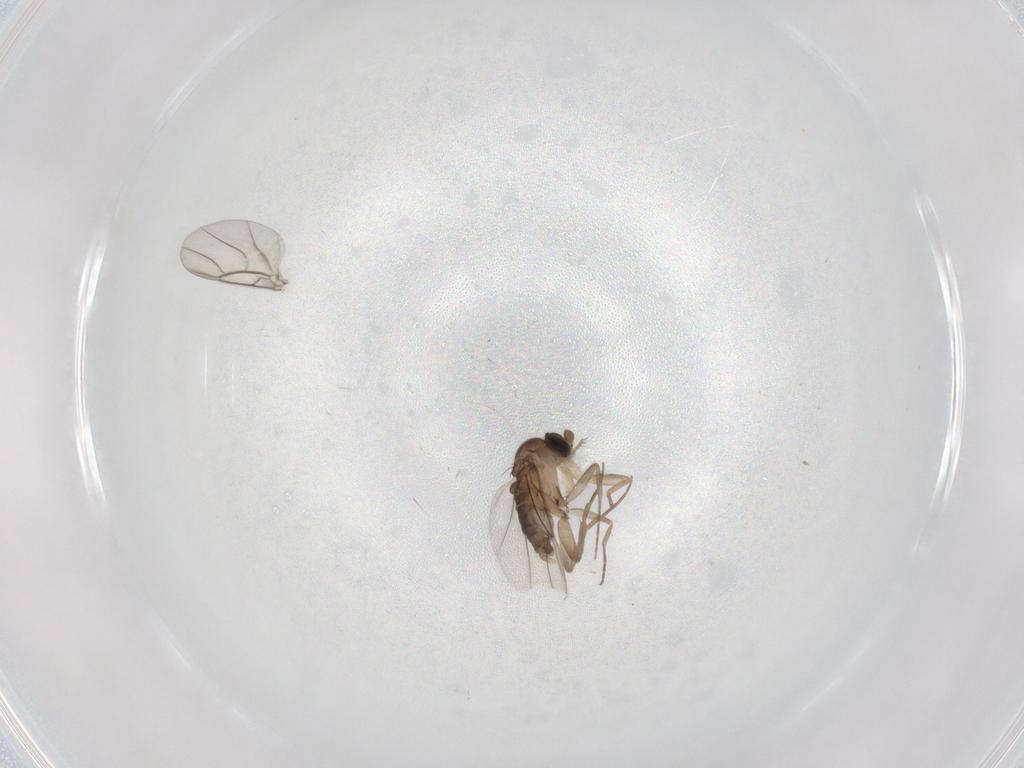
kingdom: Animalia
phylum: Arthropoda
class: Insecta
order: Diptera
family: Phoridae
